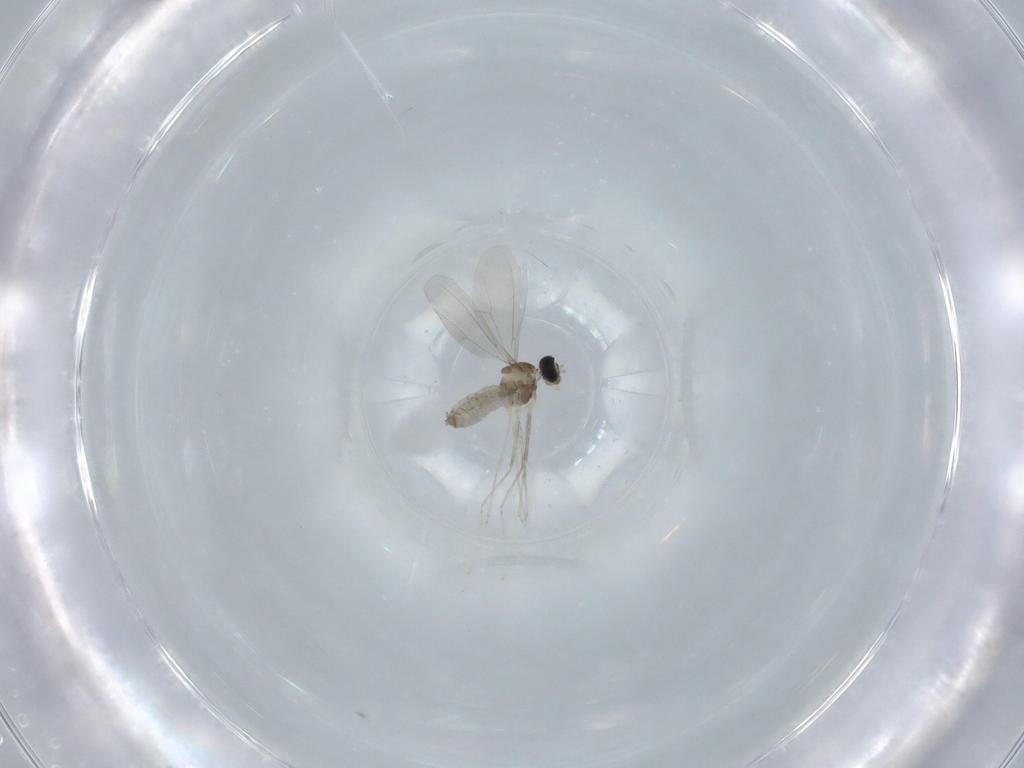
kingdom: Animalia
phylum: Arthropoda
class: Insecta
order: Diptera
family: Cecidomyiidae
